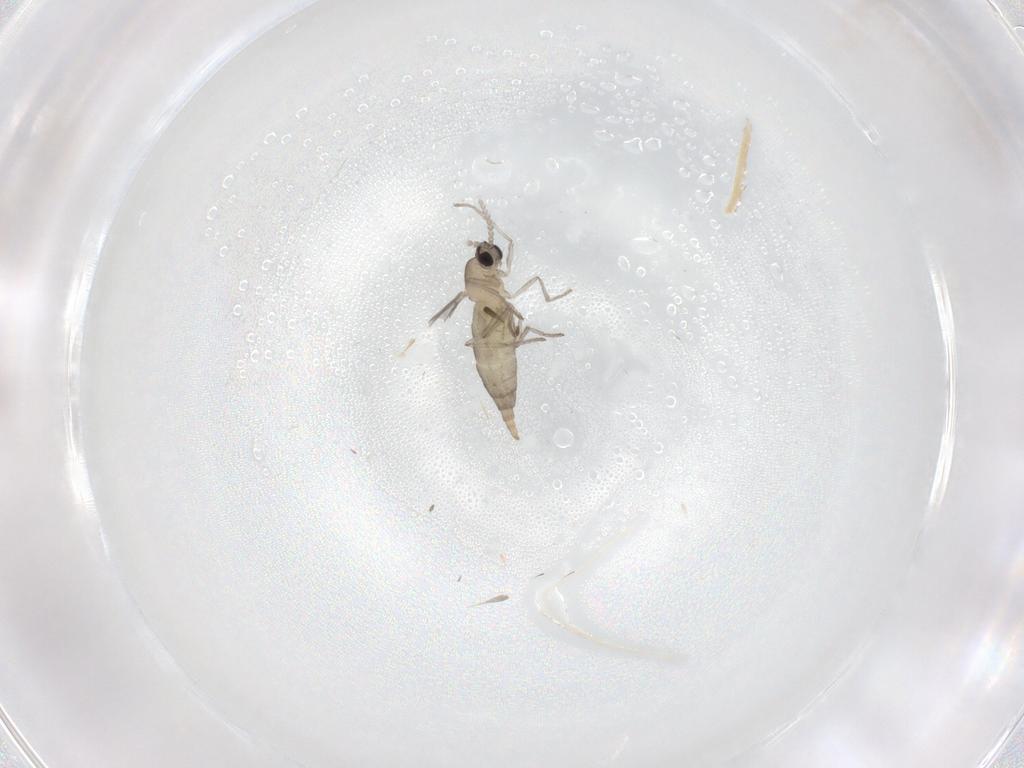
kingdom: Animalia
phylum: Arthropoda
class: Insecta
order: Diptera
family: Cecidomyiidae
